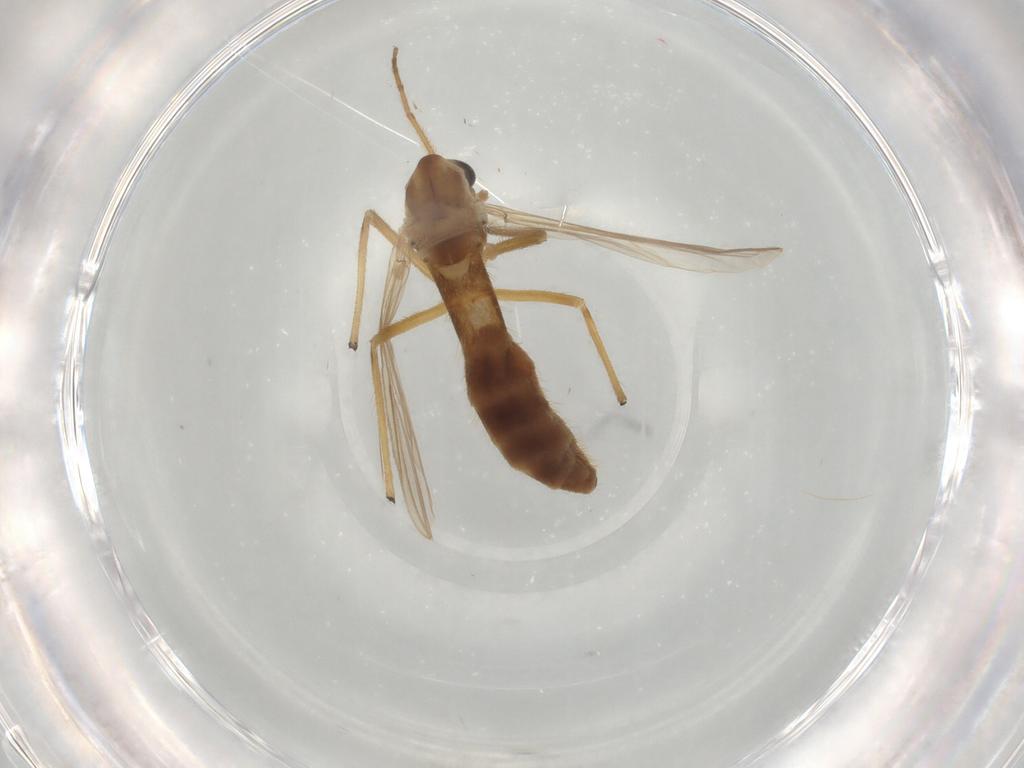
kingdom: Animalia
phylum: Arthropoda
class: Insecta
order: Diptera
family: Chironomidae
